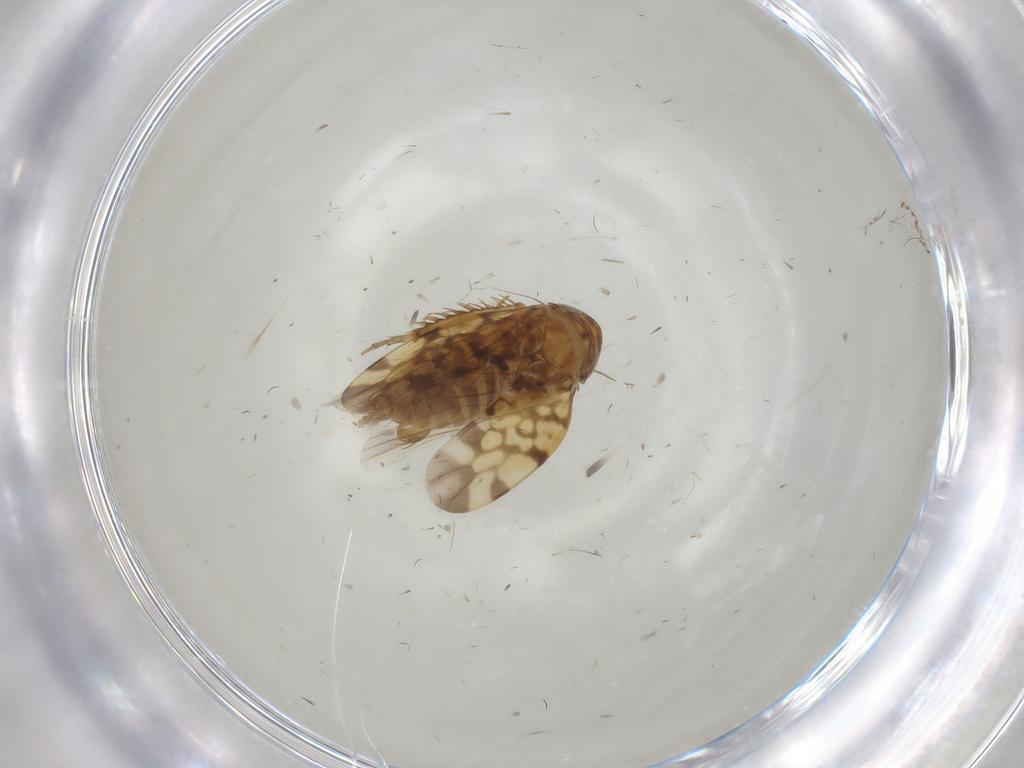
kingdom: Animalia
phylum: Arthropoda
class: Insecta
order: Hemiptera
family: Cicadellidae
